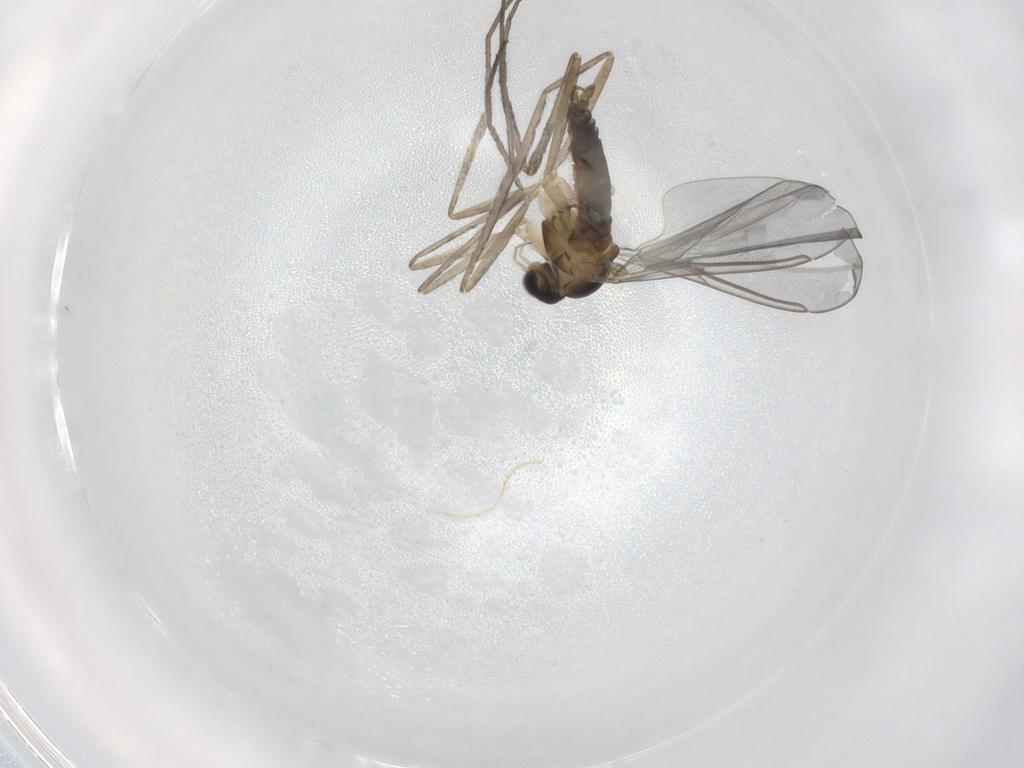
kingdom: Animalia
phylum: Arthropoda
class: Insecta
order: Diptera
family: Cecidomyiidae
